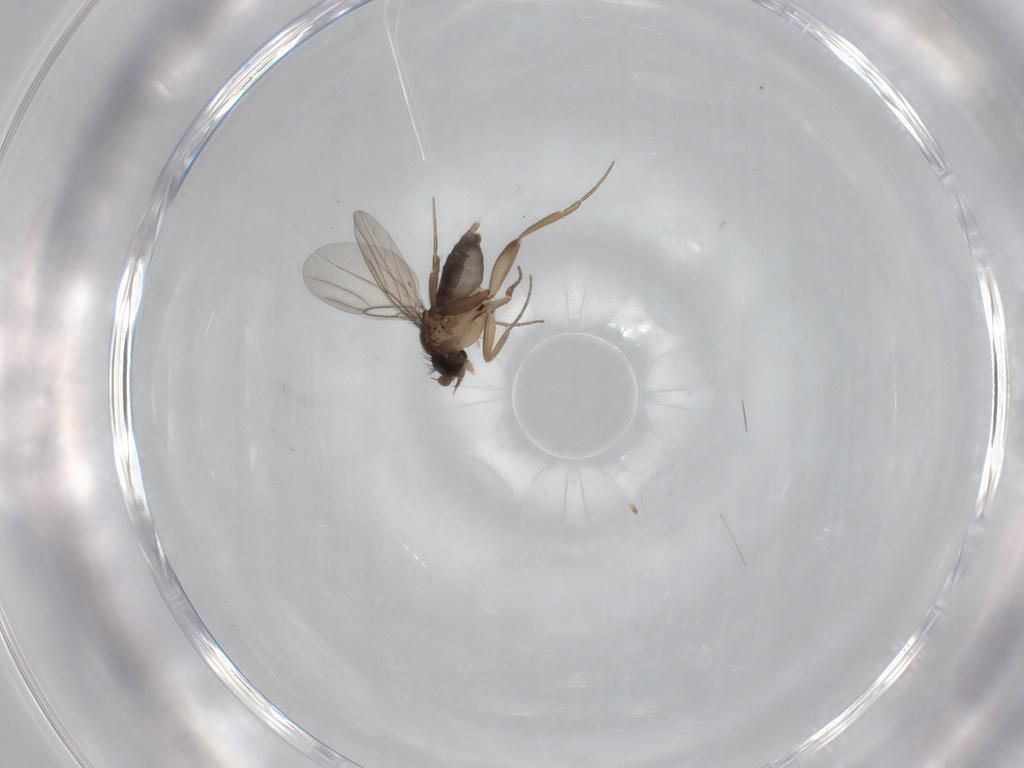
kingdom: Animalia
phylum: Arthropoda
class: Insecta
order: Diptera
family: Phoridae
